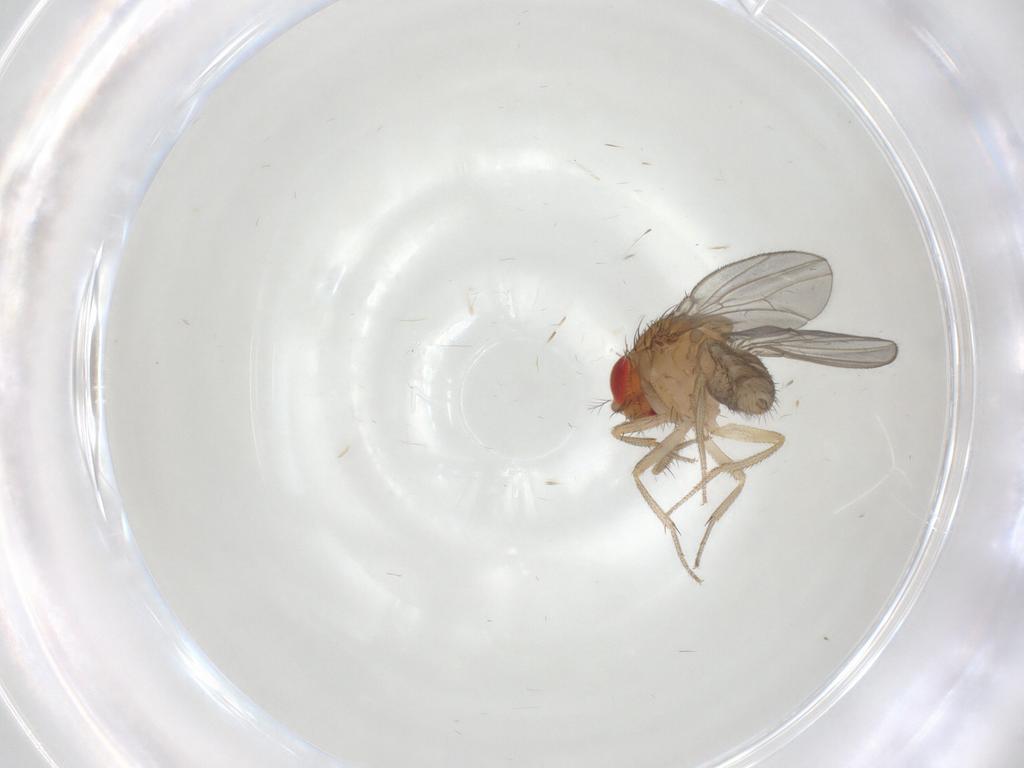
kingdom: Animalia
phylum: Arthropoda
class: Insecta
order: Diptera
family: Drosophilidae
